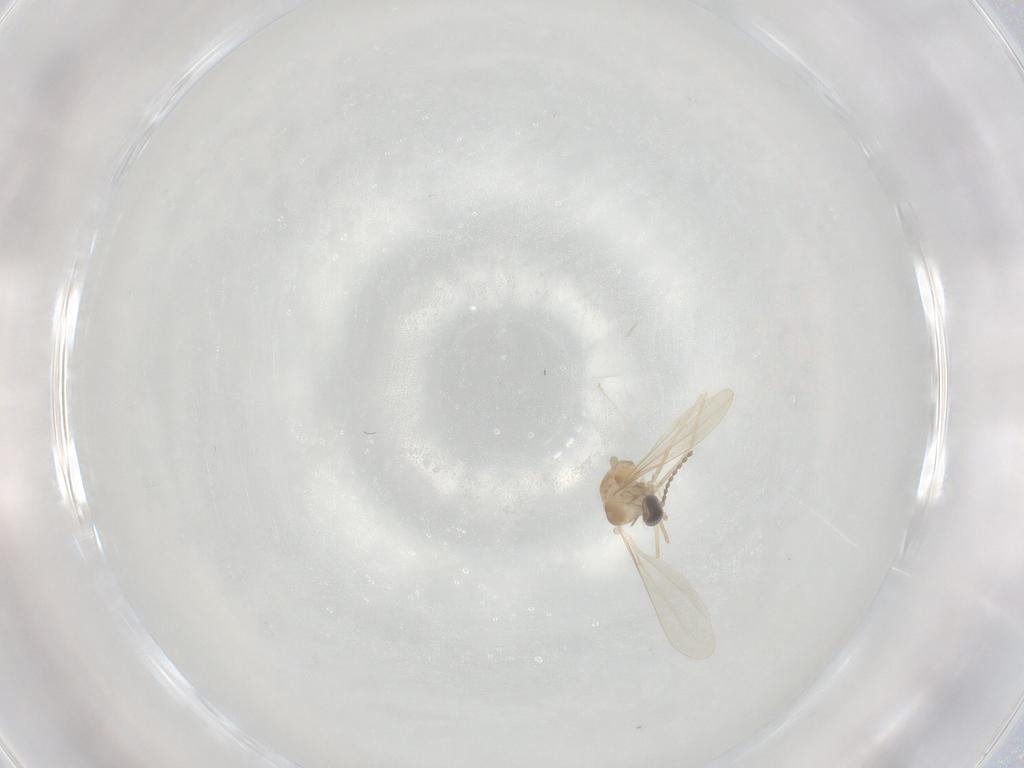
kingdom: Animalia
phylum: Arthropoda
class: Insecta
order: Diptera
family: Cecidomyiidae
